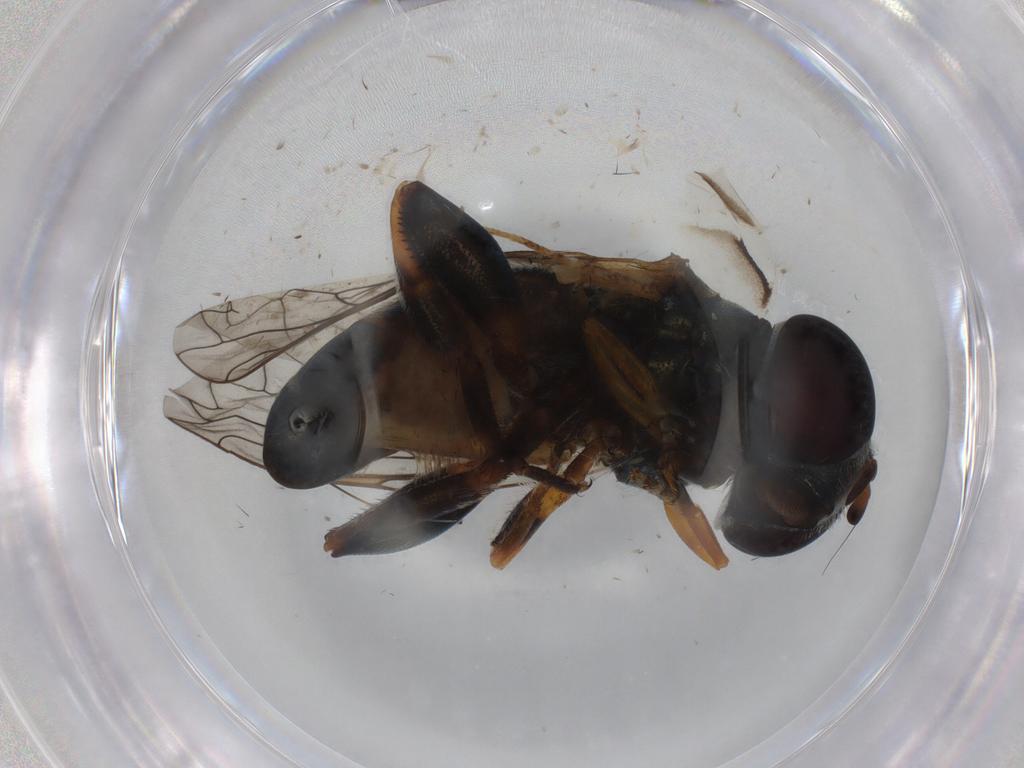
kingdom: Animalia
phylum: Arthropoda
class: Insecta
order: Diptera
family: Syrphidae
